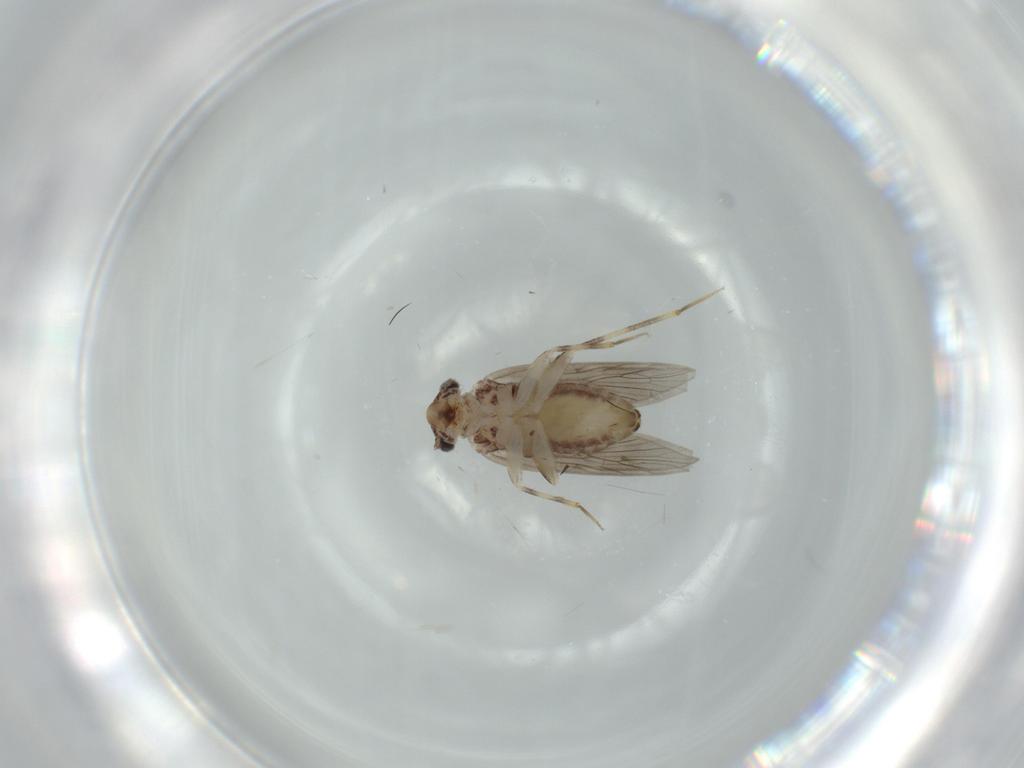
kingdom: Animalia
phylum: Arthropoda
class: Insecta
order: Psocodea
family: Lepidopsocidae
